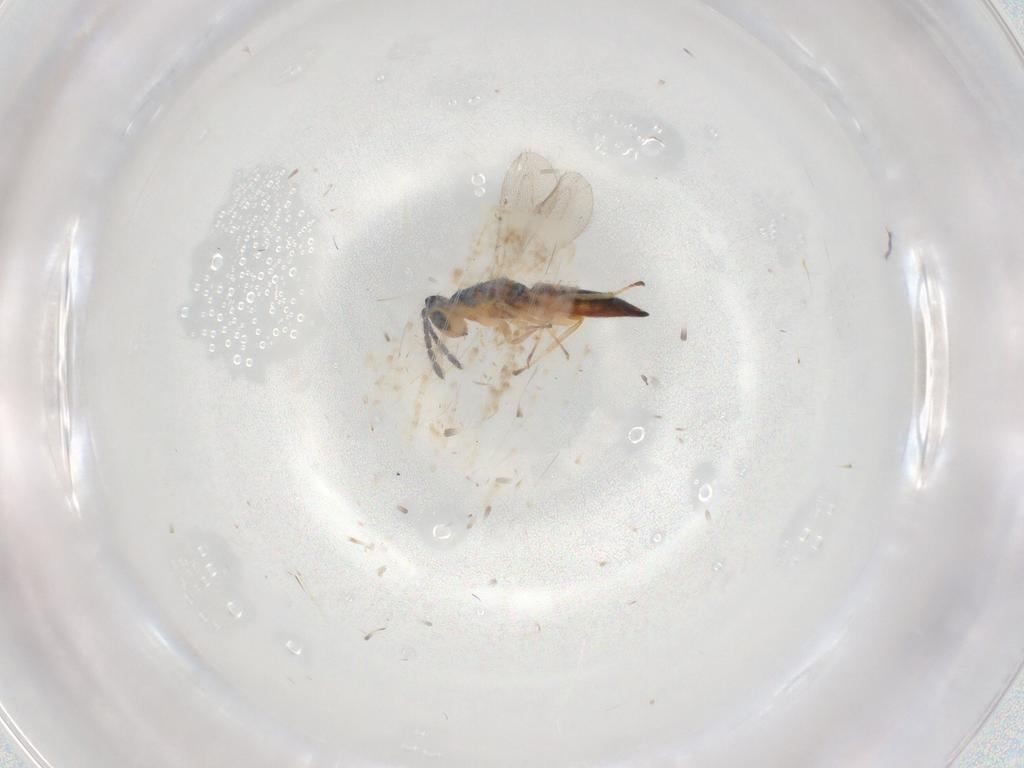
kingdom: Animalia
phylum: Arthropoda
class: Insecta
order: Hymenoptera
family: Eulophidae
